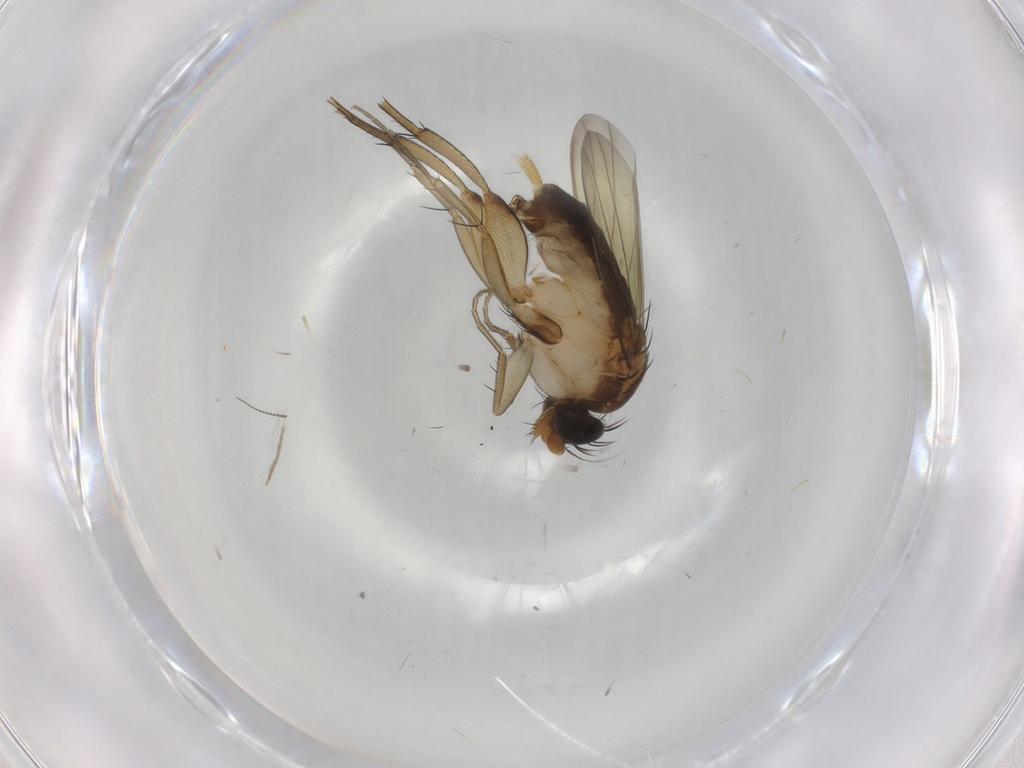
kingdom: Animalia
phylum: Arthropoda
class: Insecta
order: Diptera
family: Phoridae
